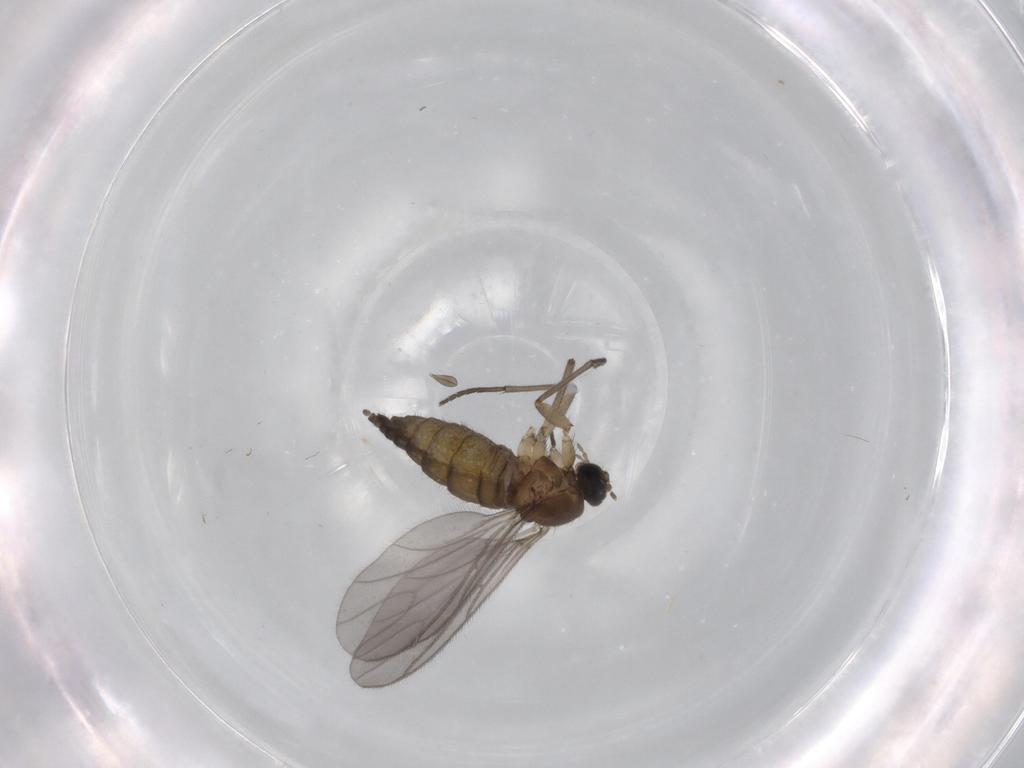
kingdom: Animalia
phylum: Arthropoda
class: Insecta
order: Diptera
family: Sciaridae
